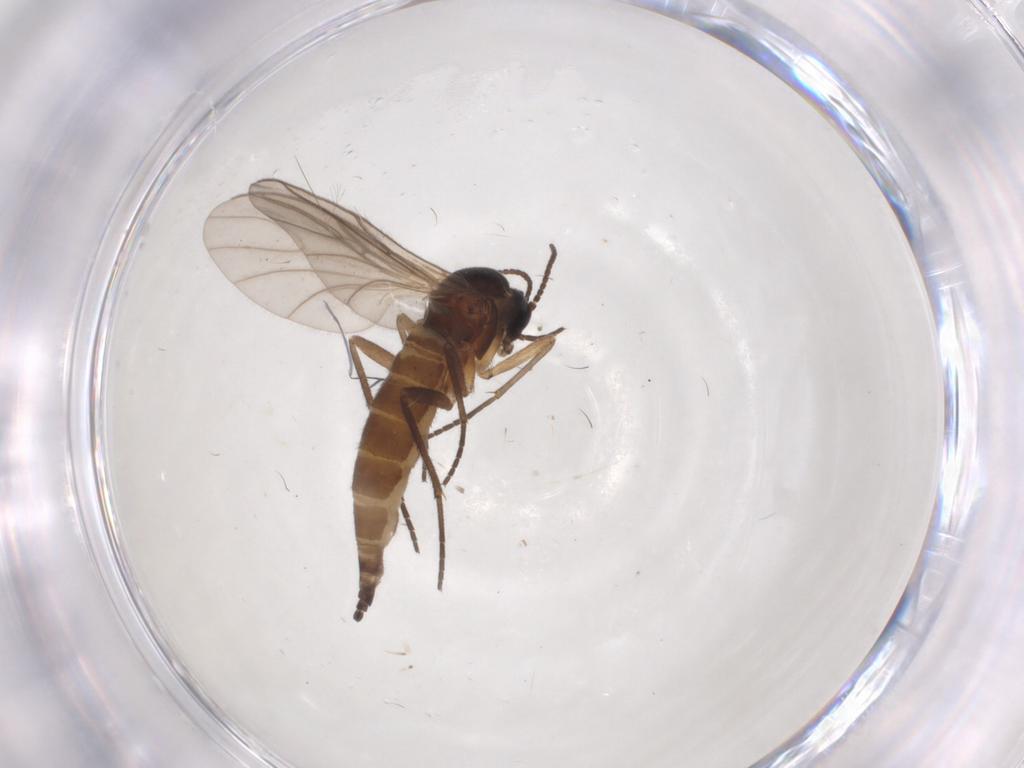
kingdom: Animalia
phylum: Arthropoda
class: Insecta
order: Diptera
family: Sciaridae
